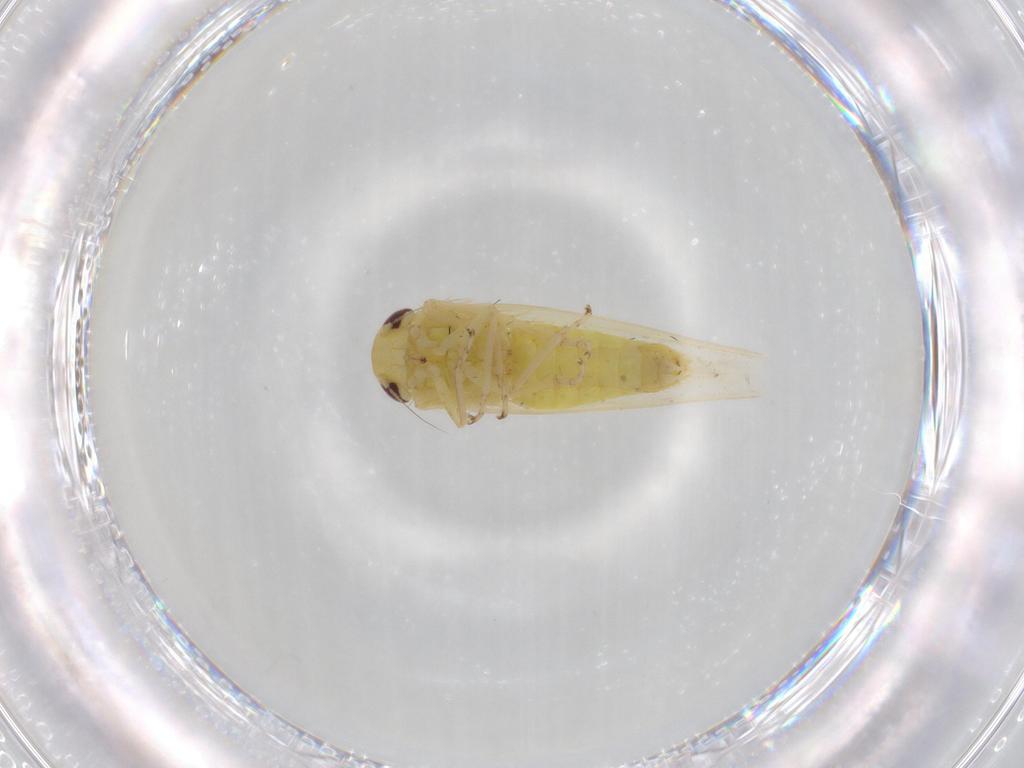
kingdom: Animalia
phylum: Arthropoda
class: Insecta
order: Hemiptera
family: Cicadellidae
